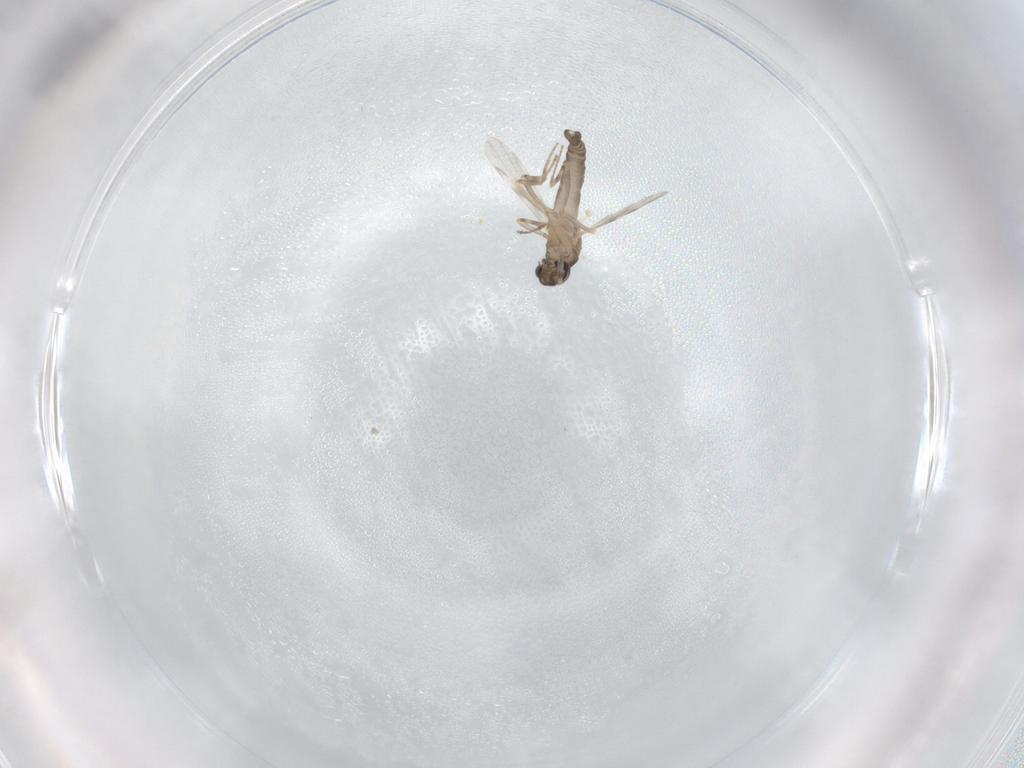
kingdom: Animalia
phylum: Arthropoda
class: Insecta
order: Diptera
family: Ceratopogonidae
